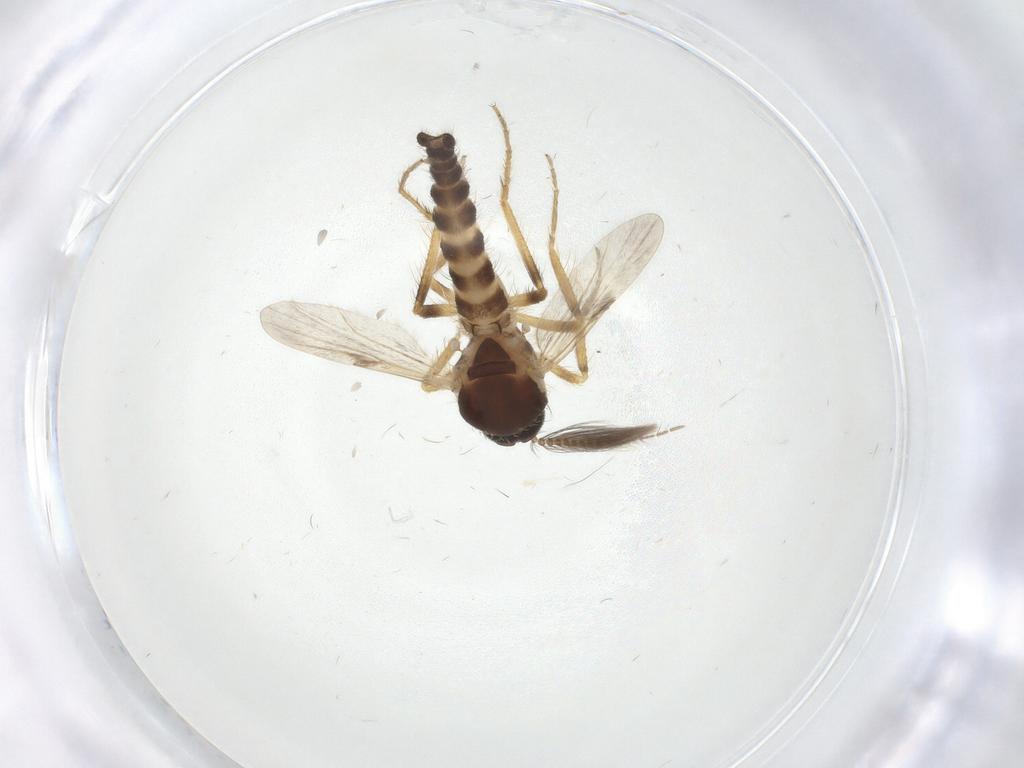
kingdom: Animalia
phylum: Arthropoda
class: Insecta
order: Diptera
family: Ceratopogonidae
